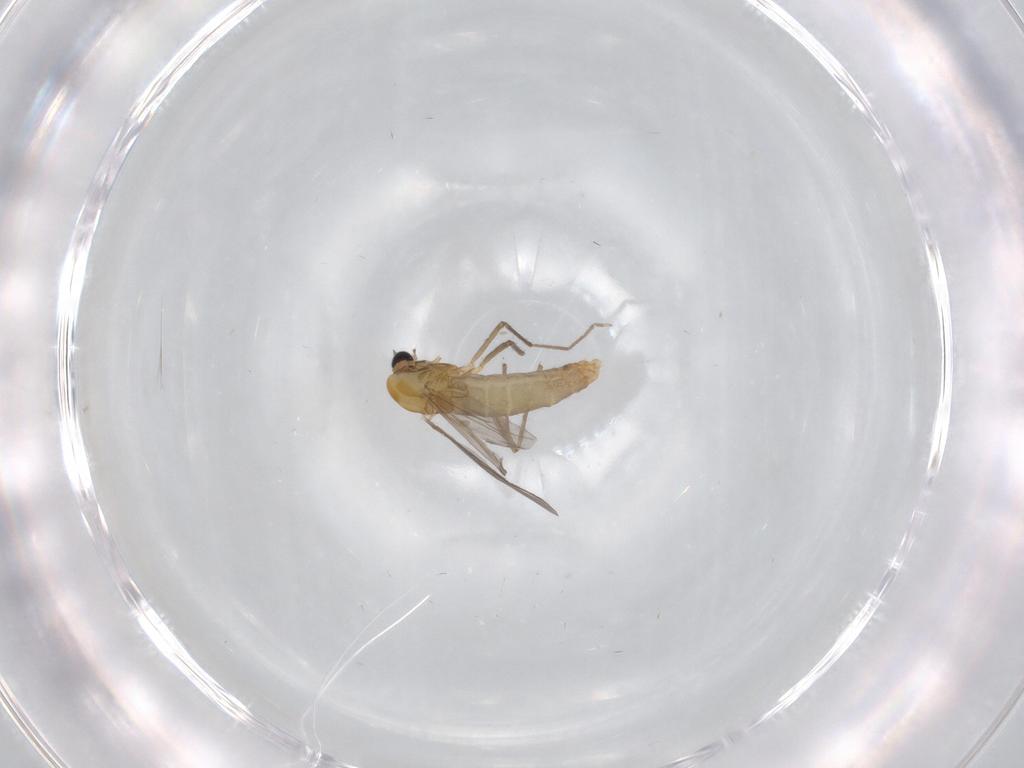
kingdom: Animalia
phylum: Arthropoda
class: Insecta
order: Diptera
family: Chironomidae
